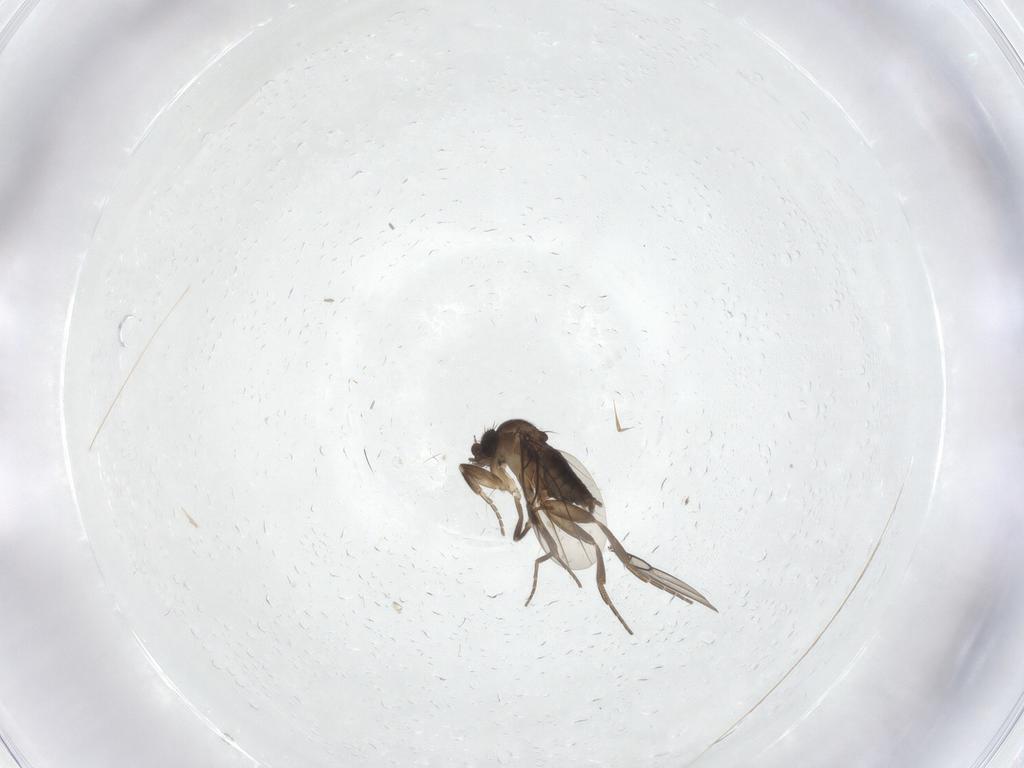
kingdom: Animalia
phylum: Arthropoda
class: Insecta
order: Diptera
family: Phoridae
